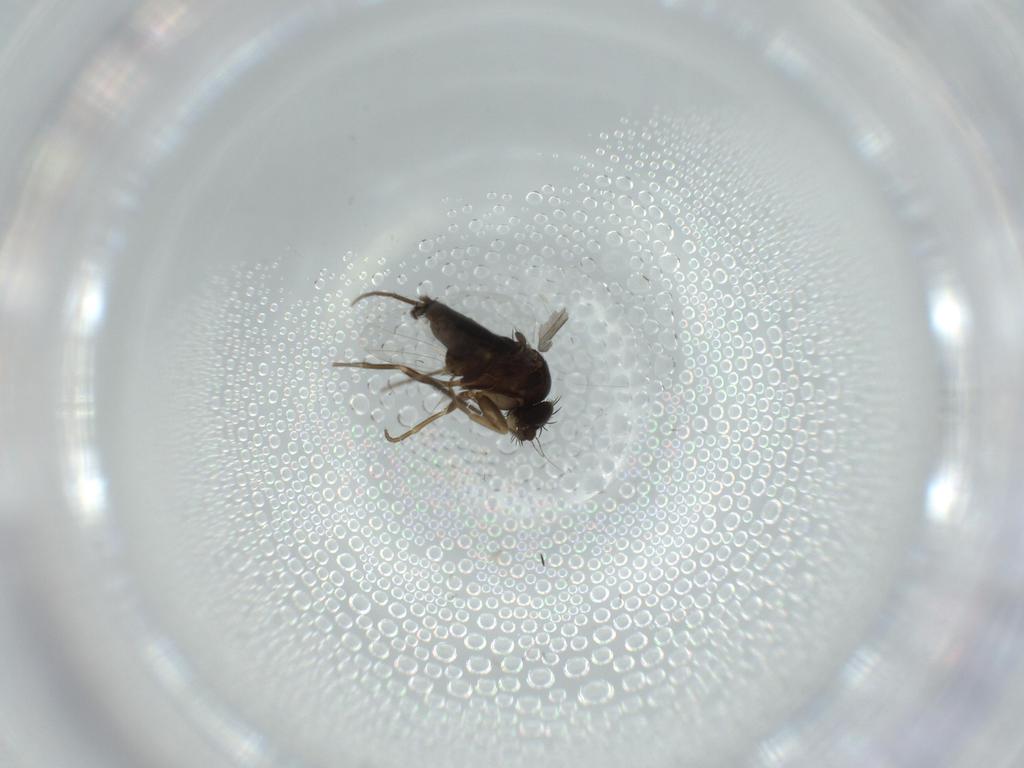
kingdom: Animalia
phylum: Arthropoda
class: Insecta
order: Diptera
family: Phoridae
